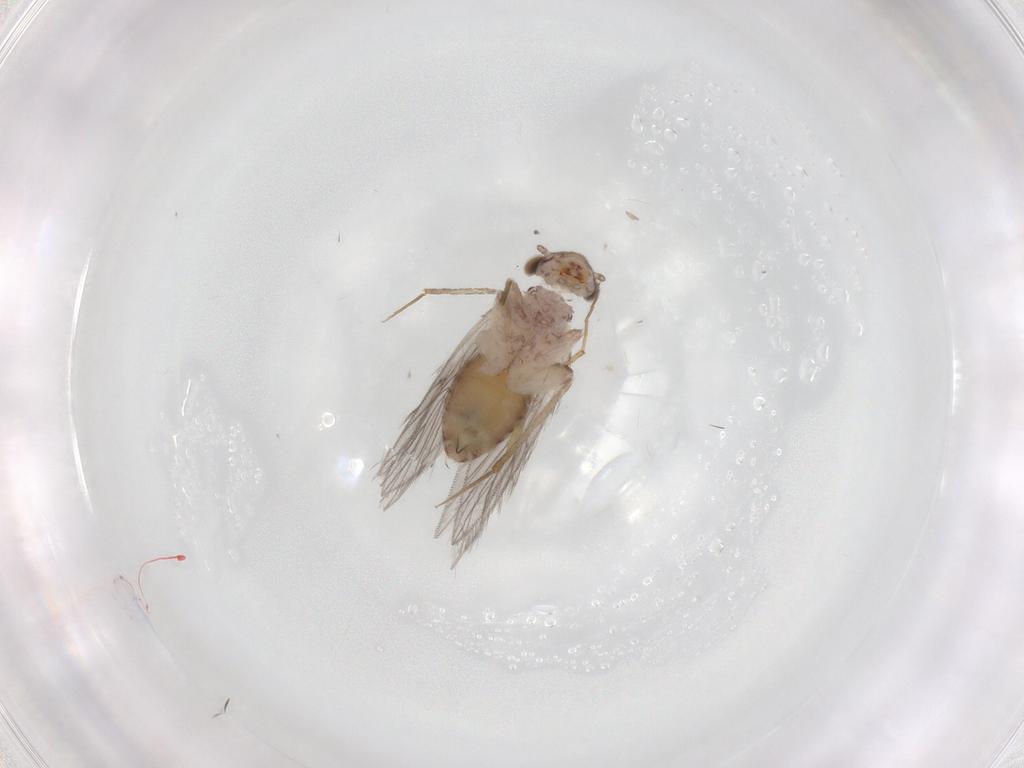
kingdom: Animalia
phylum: Arthropoda
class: Insecta
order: Psocodea
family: Lepidopsocidae
